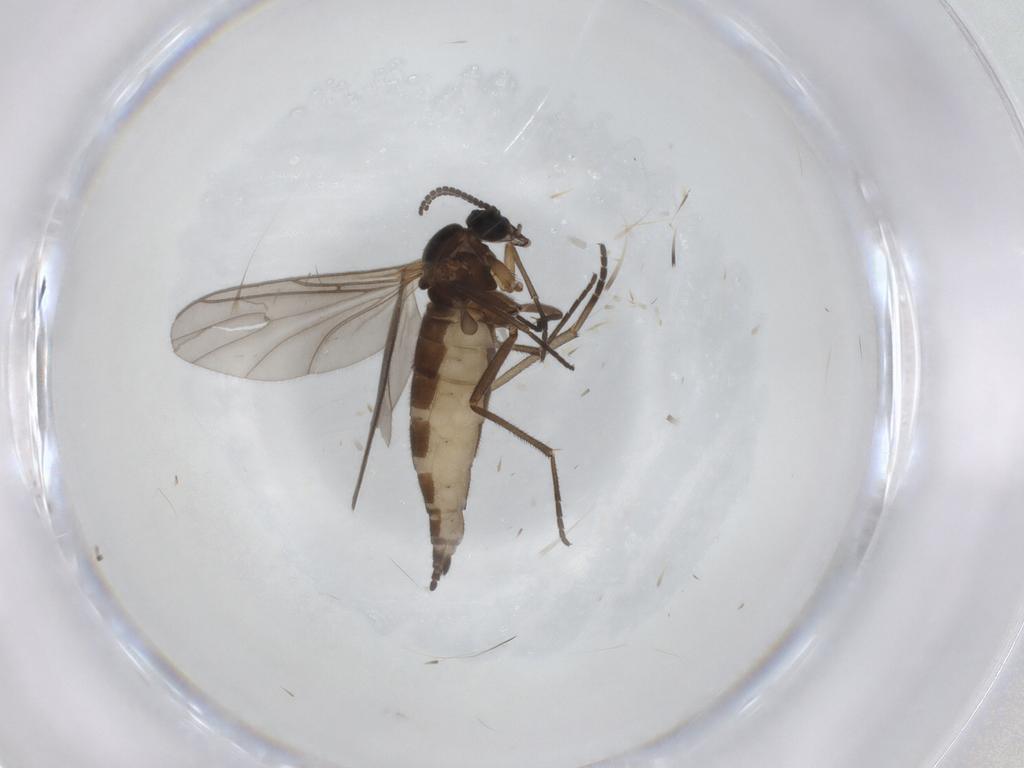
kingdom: Animalia
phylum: Arthropoda
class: Insecta
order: Diptera
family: Sciaridae
